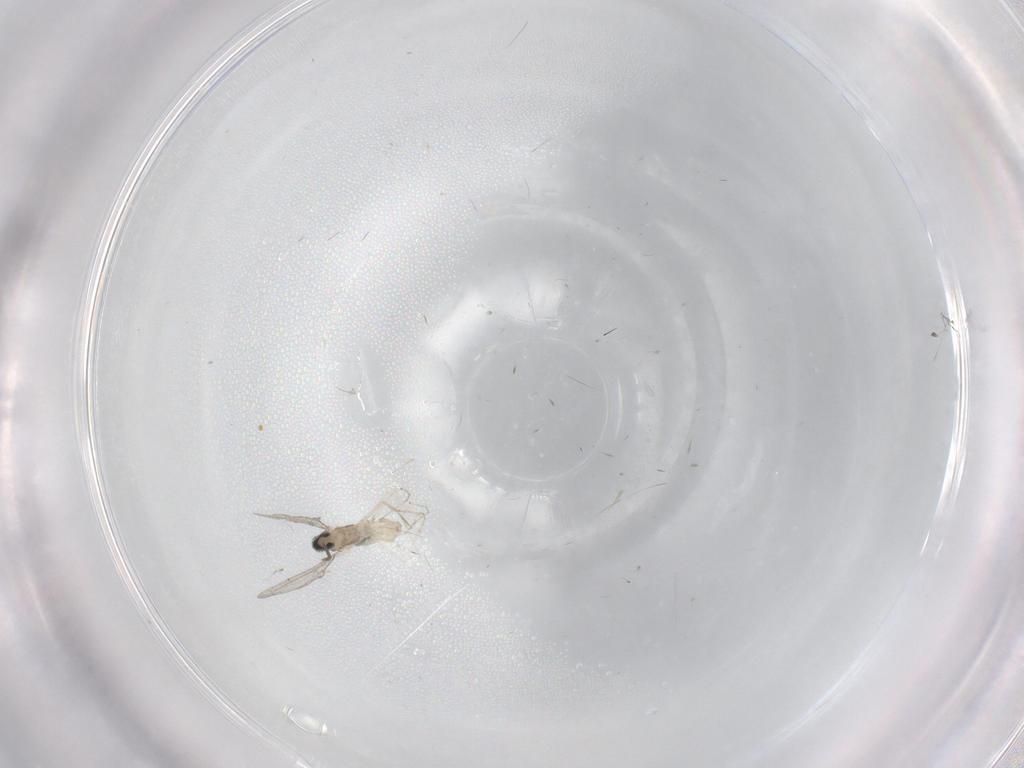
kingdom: Animalia
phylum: Arthropoda
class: Insecta
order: Diptera
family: Cecidomyiidae
